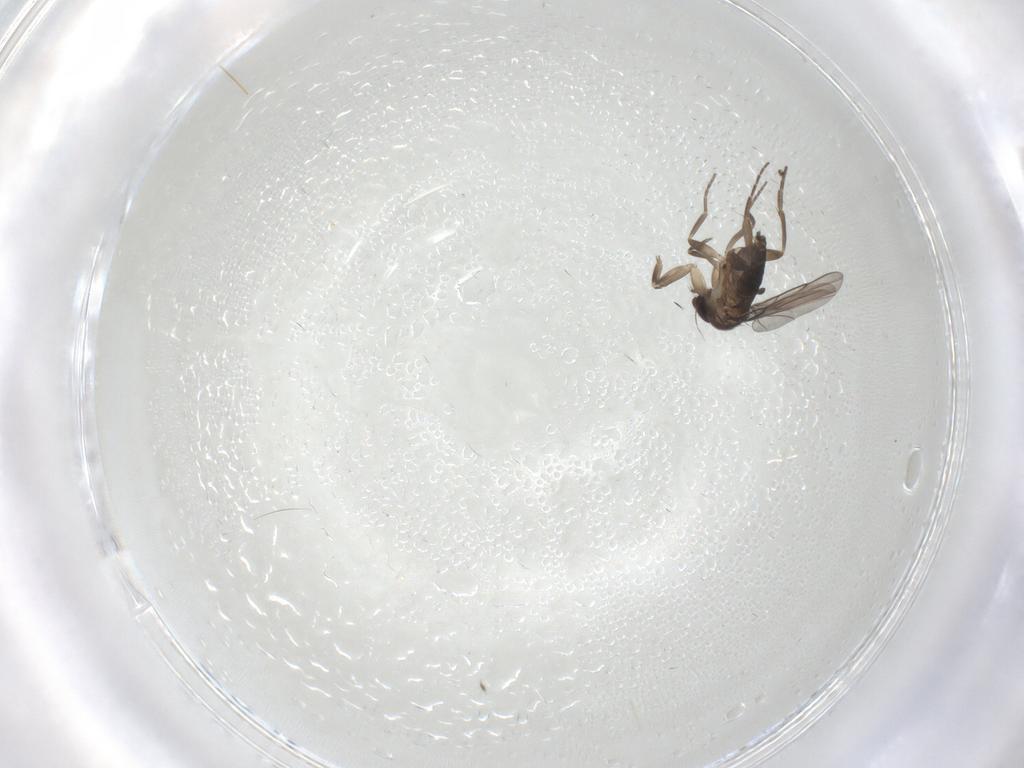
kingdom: Animalia
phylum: Arthropoda
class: Insecta
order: Diptera
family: Phoridae
